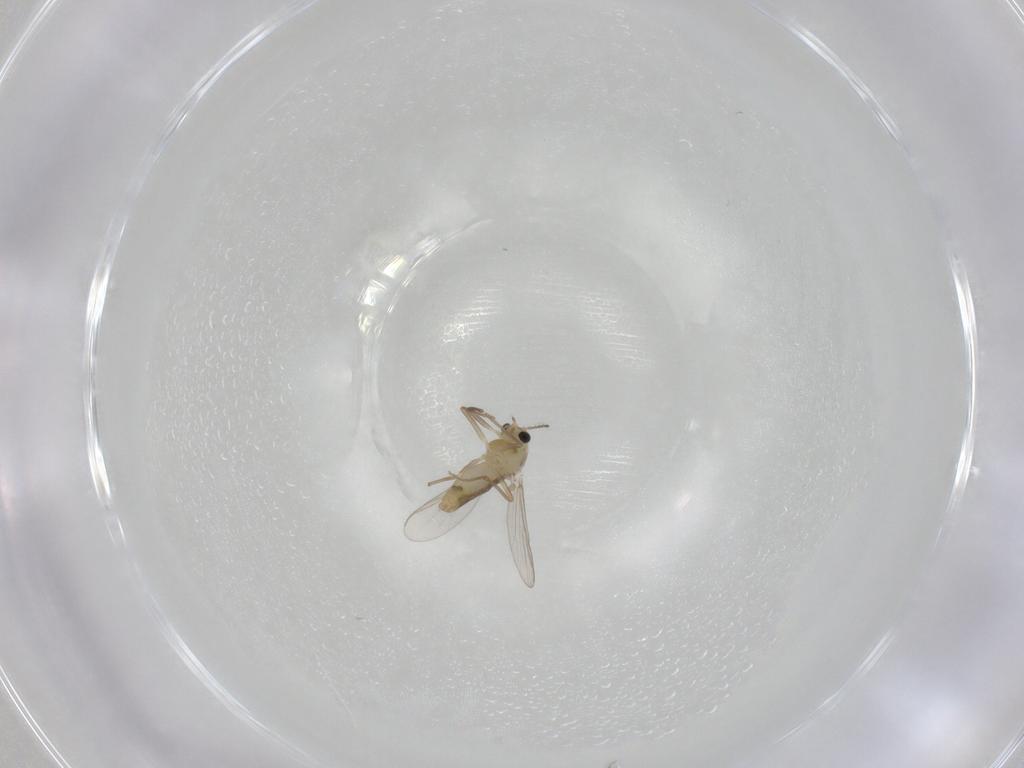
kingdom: Animalia
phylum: Arthropoda
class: Insecta
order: Diptera
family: Chironomidae
